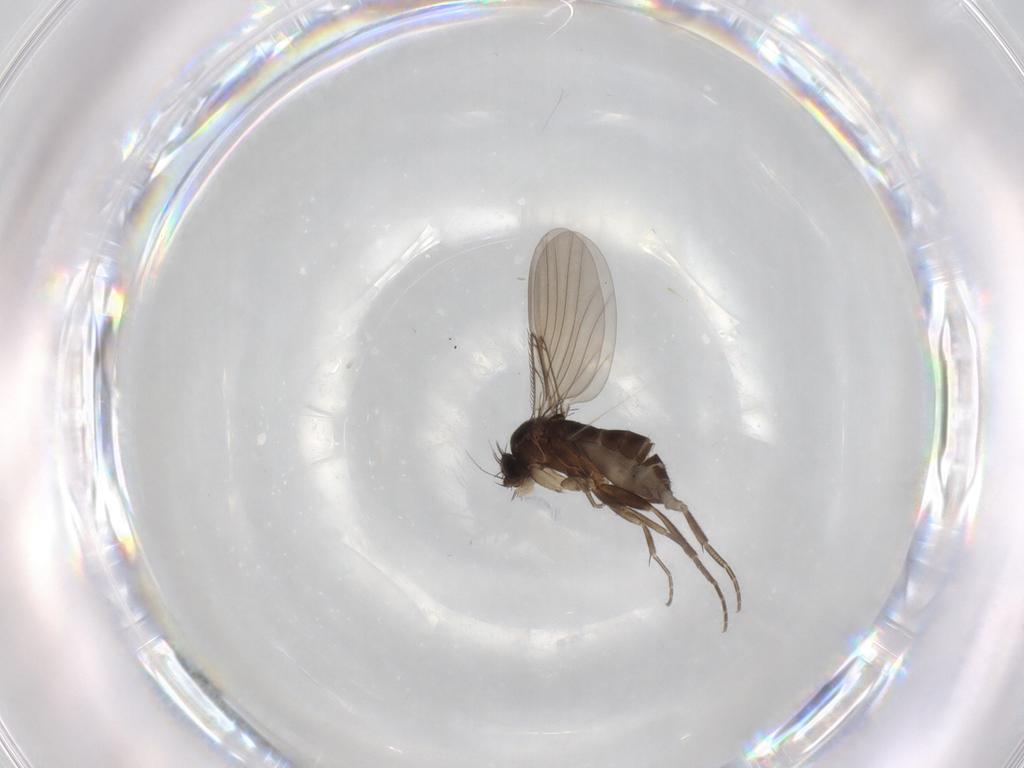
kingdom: Animalia
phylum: Arthropoda
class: Insecta
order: Diptera
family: Phoridae
